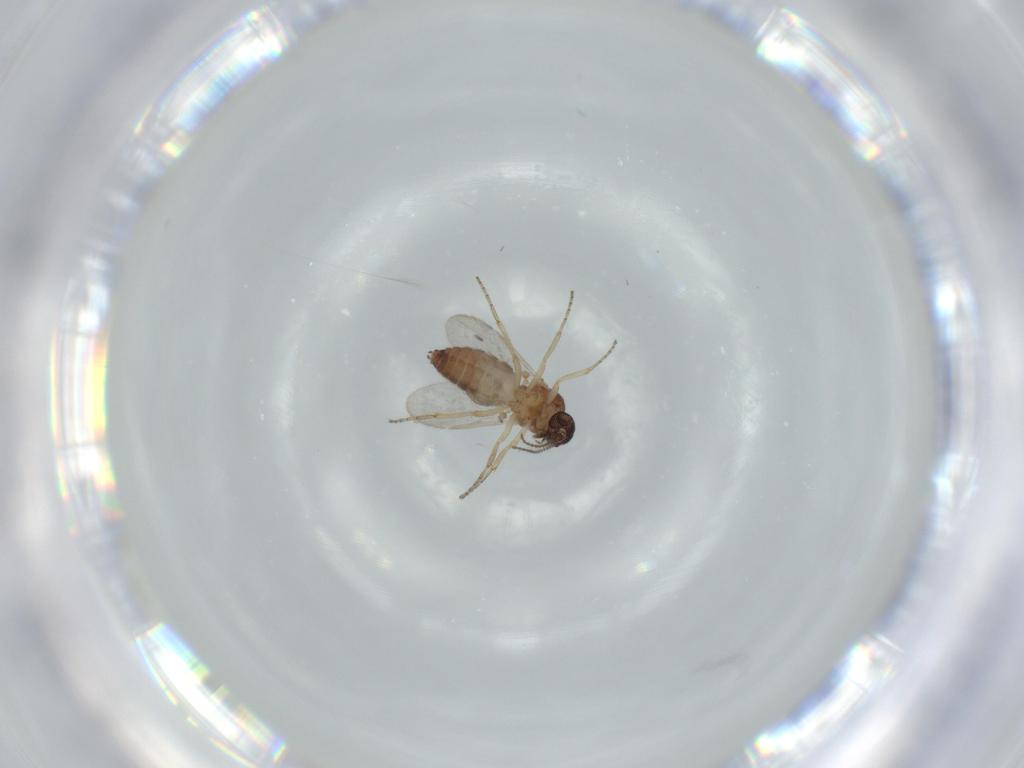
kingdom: Animalia
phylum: Arthropoda
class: Insecta
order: Diptera
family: Ceratopogonidae
